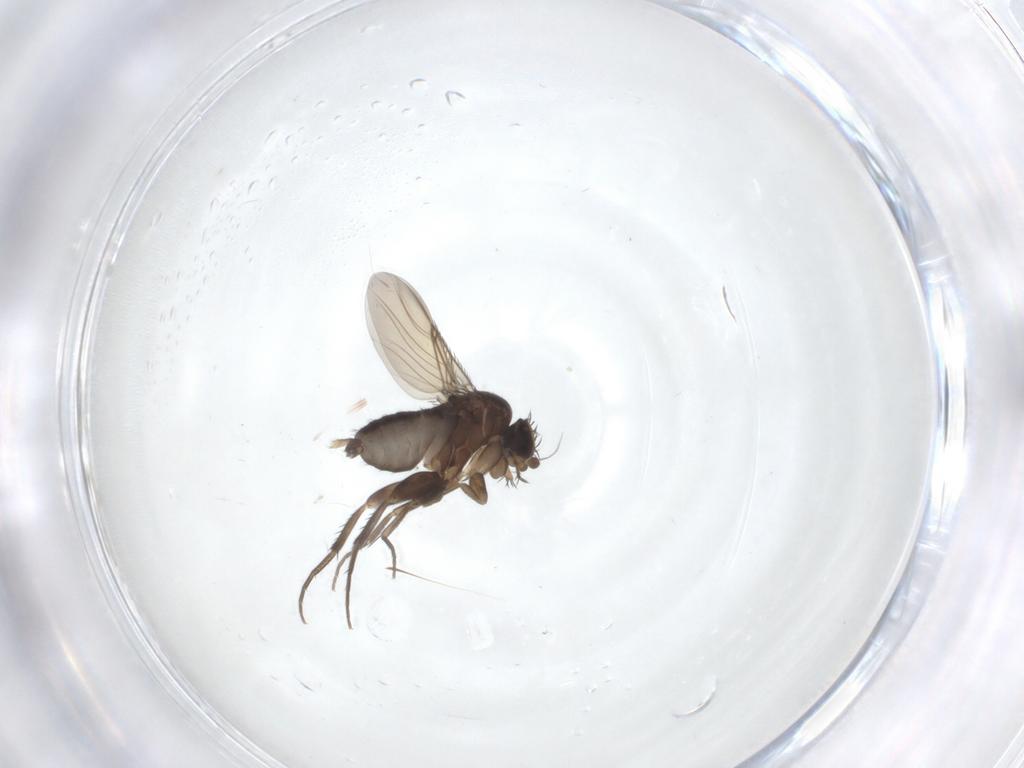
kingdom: Animalia
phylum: Arthropoda
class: Insecta
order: Diptera
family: Phoridae
